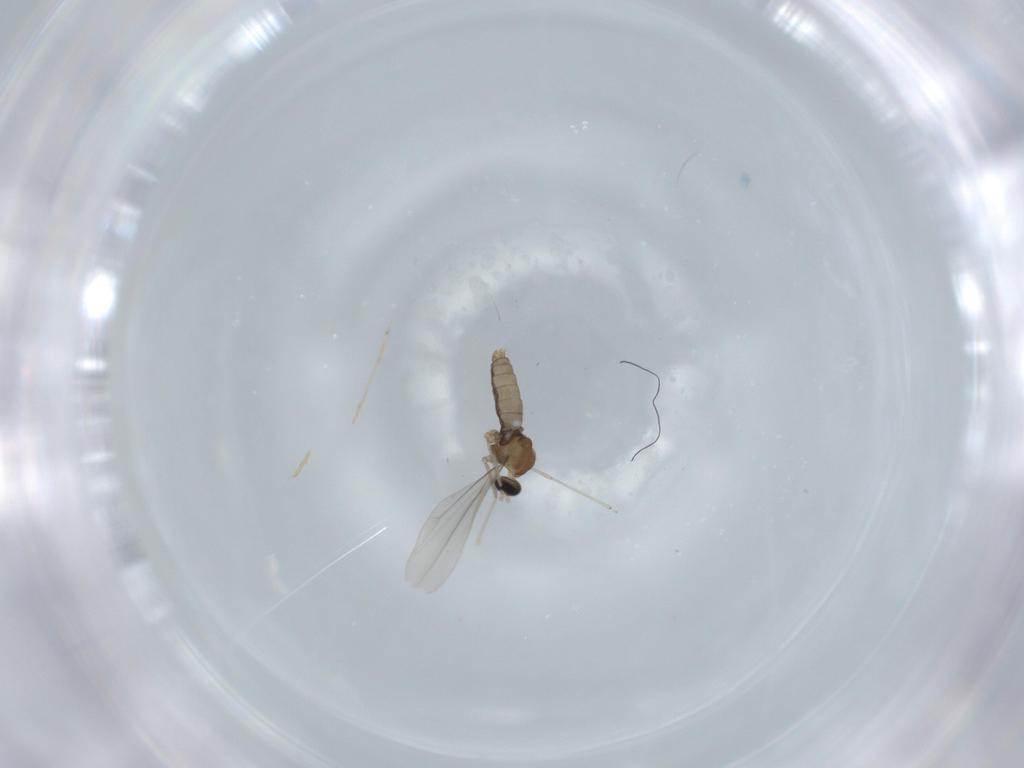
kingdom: Animalia
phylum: Arthropoda
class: Insecta
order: Diptera
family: Cecidomyiidae
